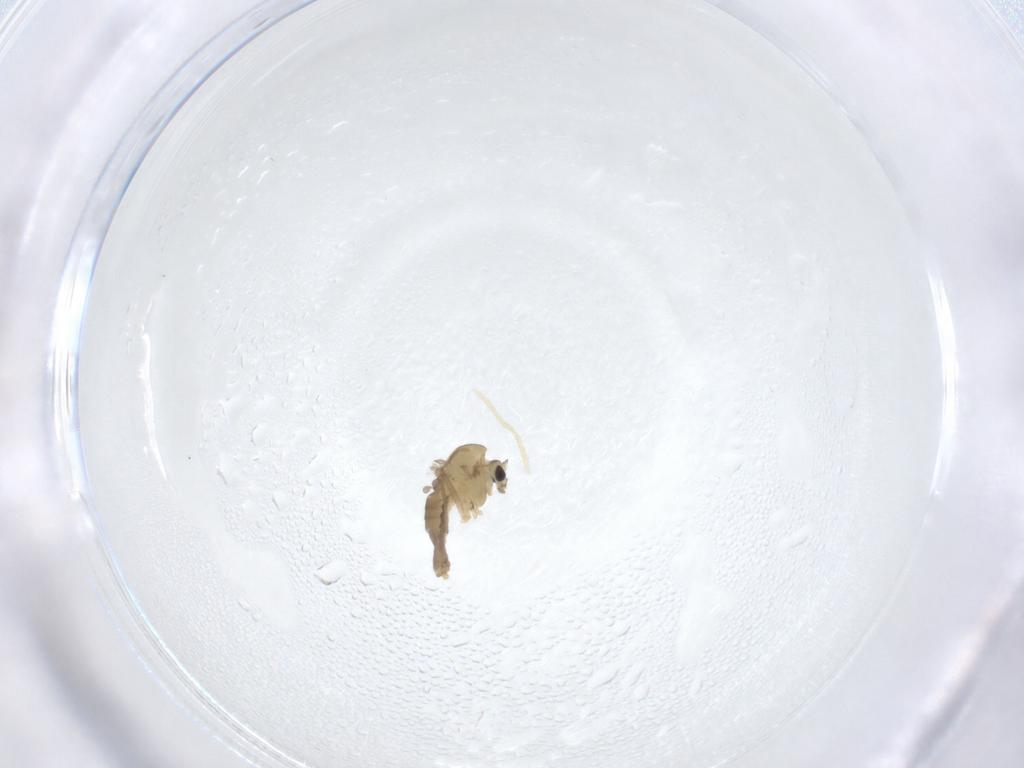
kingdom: Animalia
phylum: Arthropoda
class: Insecta
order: Diptera
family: Chironomidae
